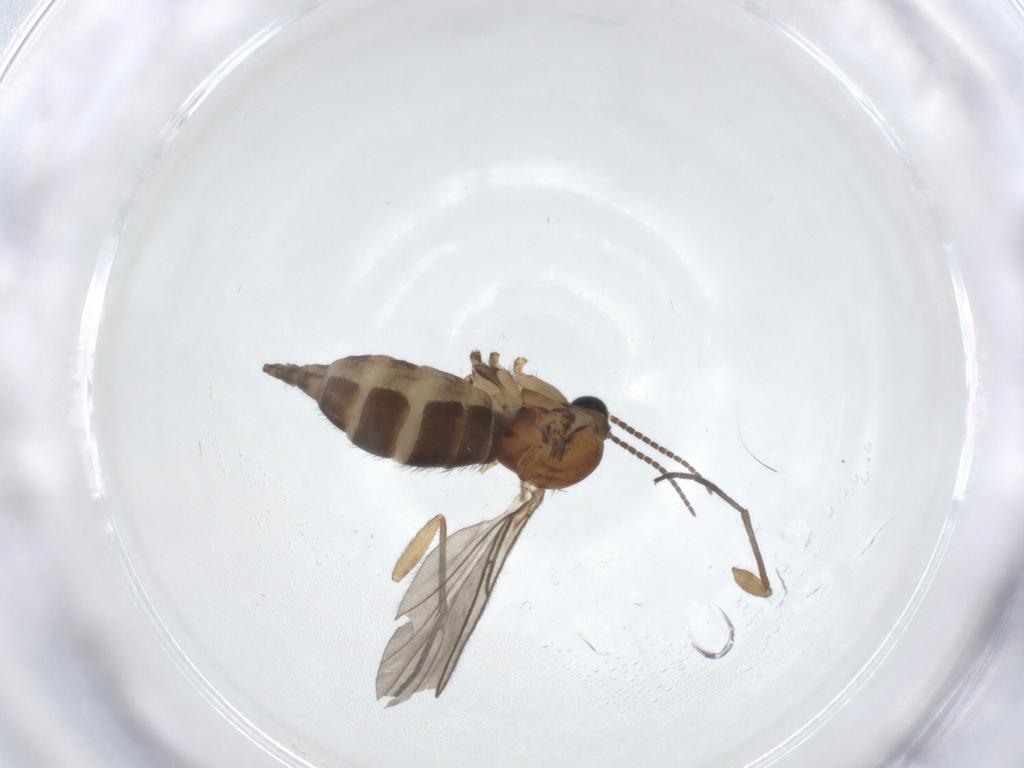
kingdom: Animalia
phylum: Arthropoda
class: Insecta
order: Diptera
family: Sciaridae
